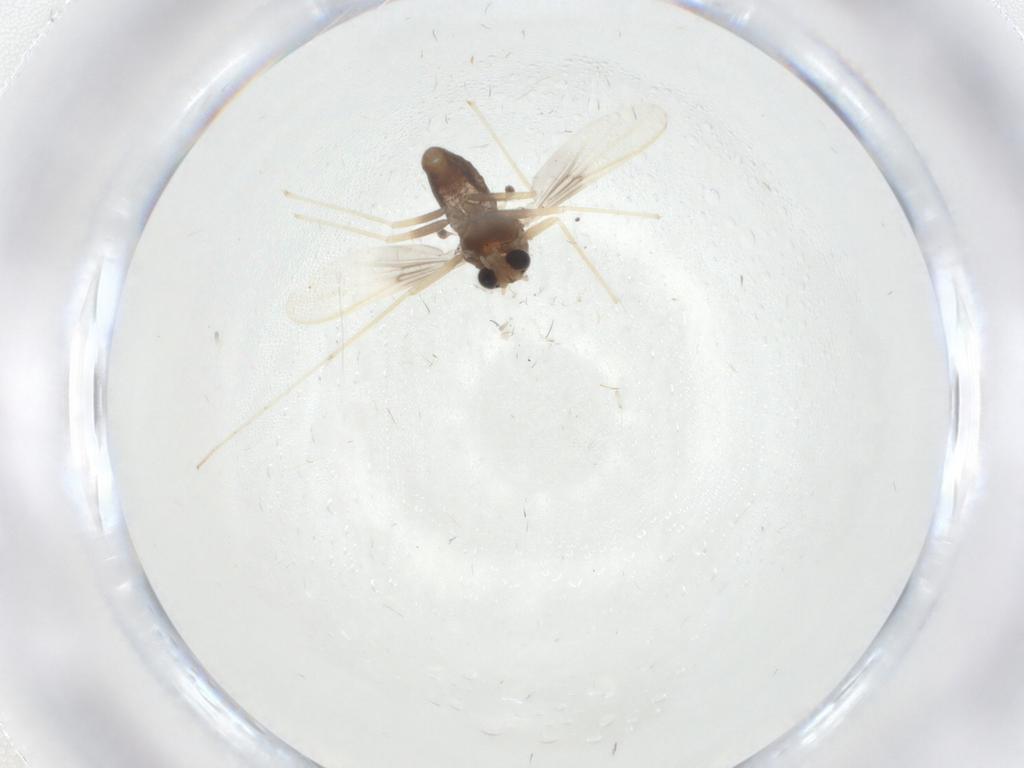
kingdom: Animalia
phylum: Arthropoda
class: Insecta
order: Diptera
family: Chironomidae
